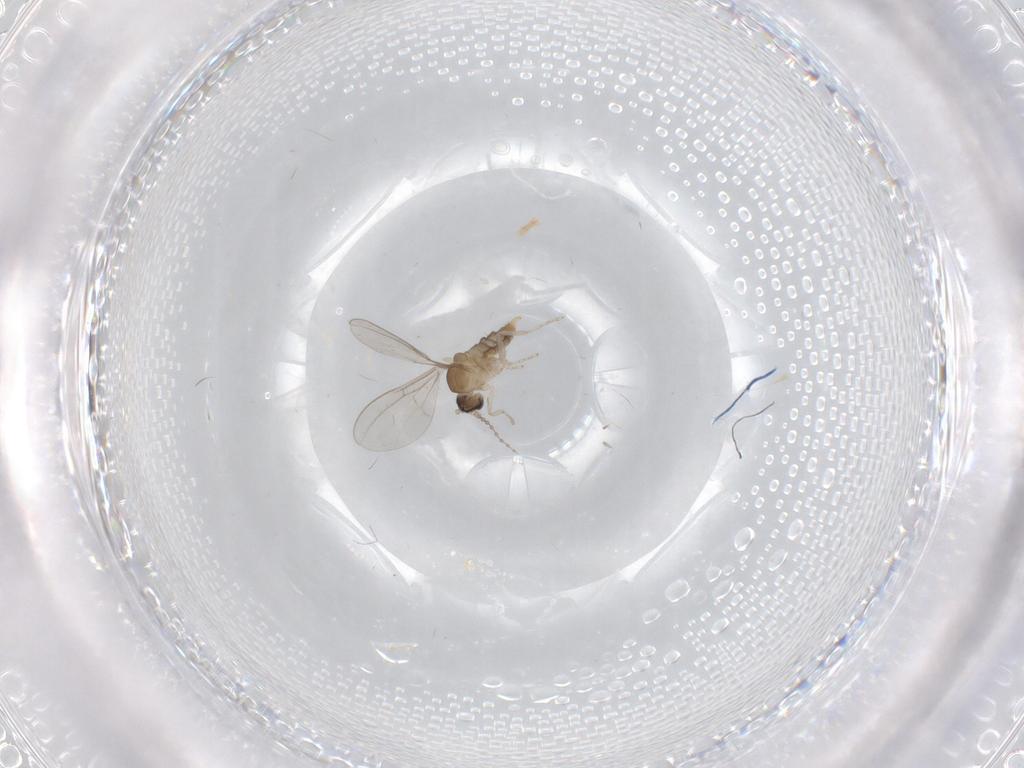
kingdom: Animalia
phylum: Arthropoda
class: Insecta
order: Diptera
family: Cecidomyiidae
